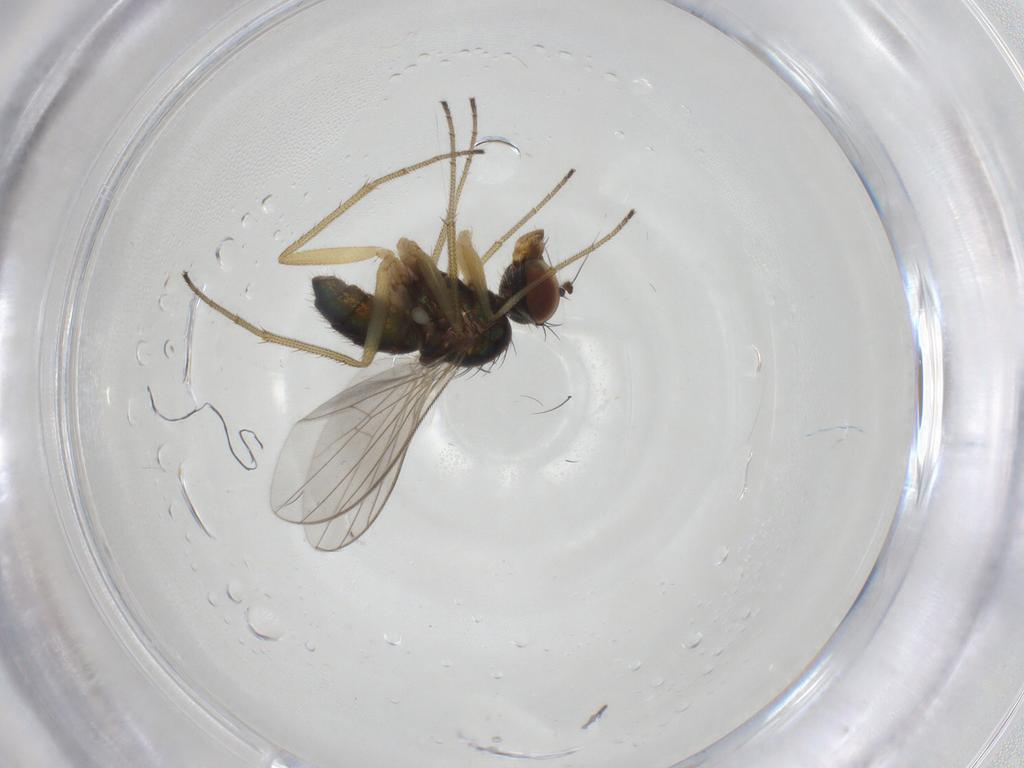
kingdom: Animalia
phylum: Arthropoda
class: Insecta
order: Diptera
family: Dolichopodidae
